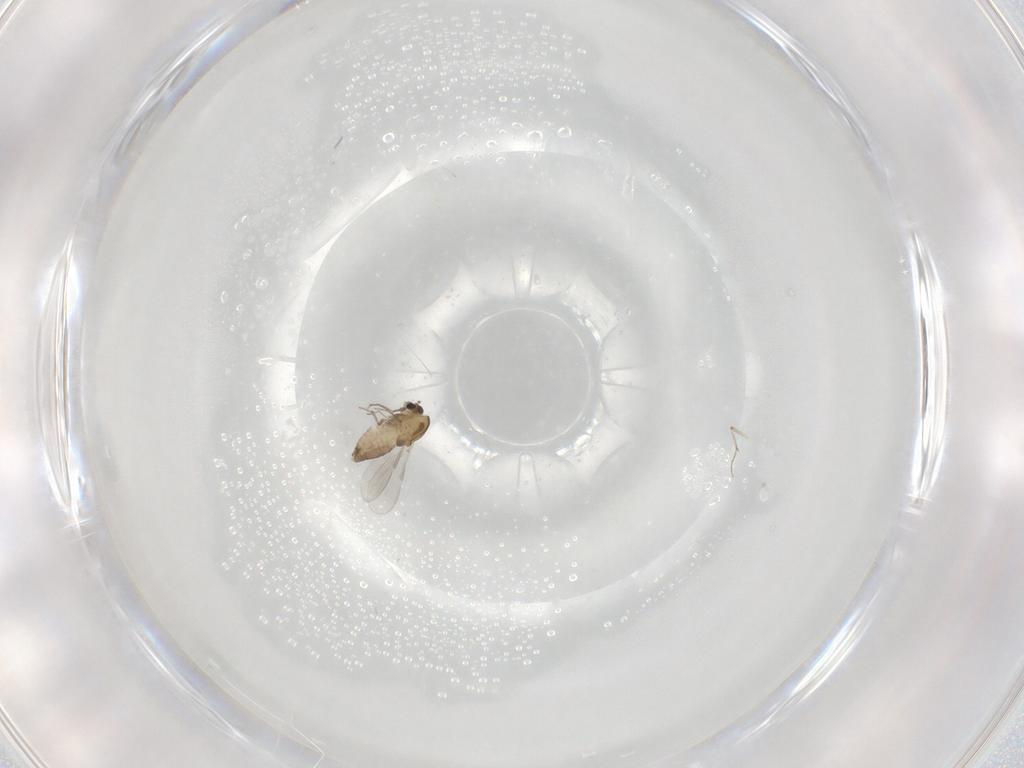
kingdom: Animalia
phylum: Arthropoda
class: Insecta
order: Diptera
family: Chironomidae
